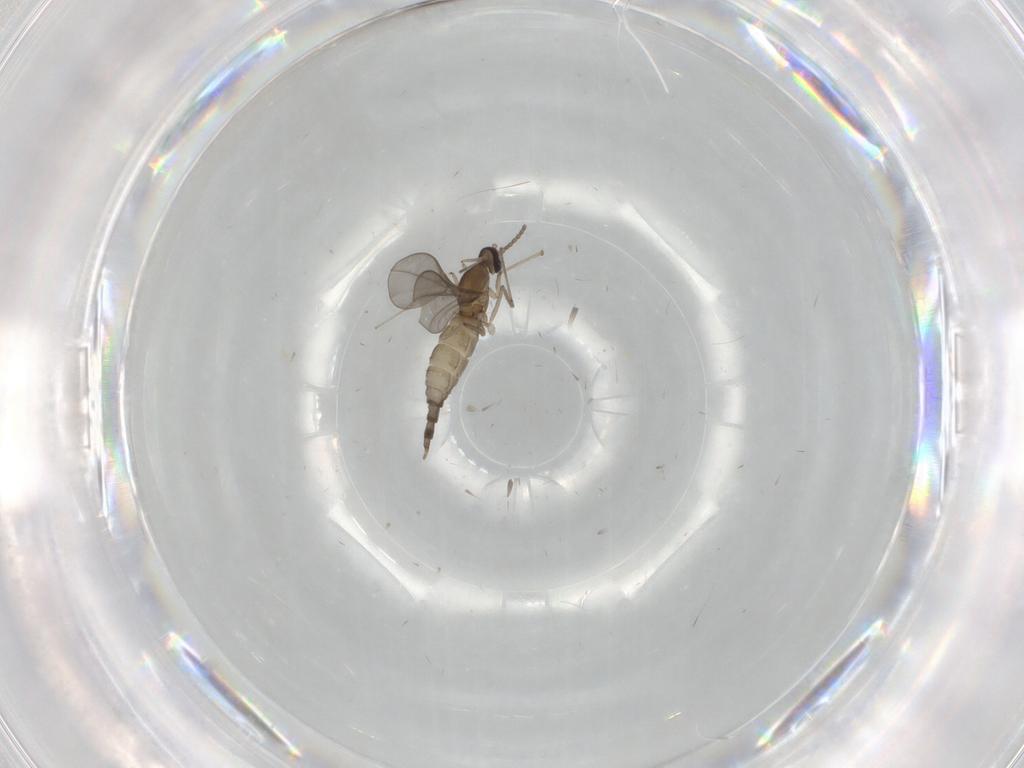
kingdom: Animalia
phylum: Arthropoda
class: Insecta
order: Diptera
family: Cecidomyiidae
